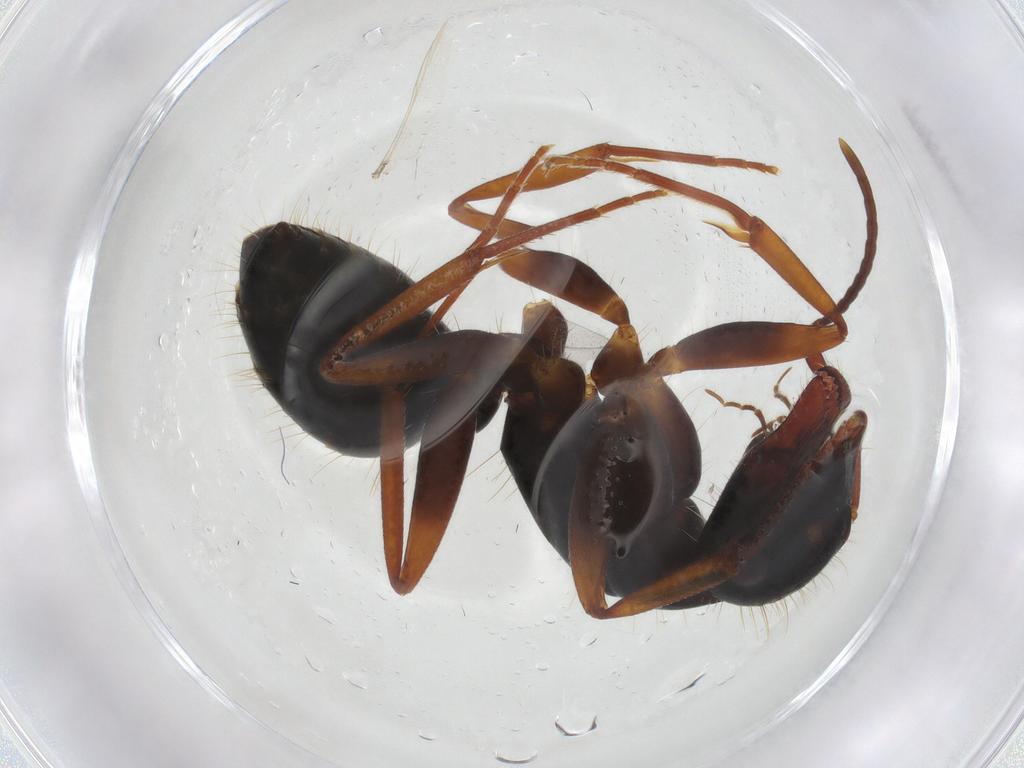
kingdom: Animalia
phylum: Arthropoda
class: Insecta
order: Hymenoptera
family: Formicidae
